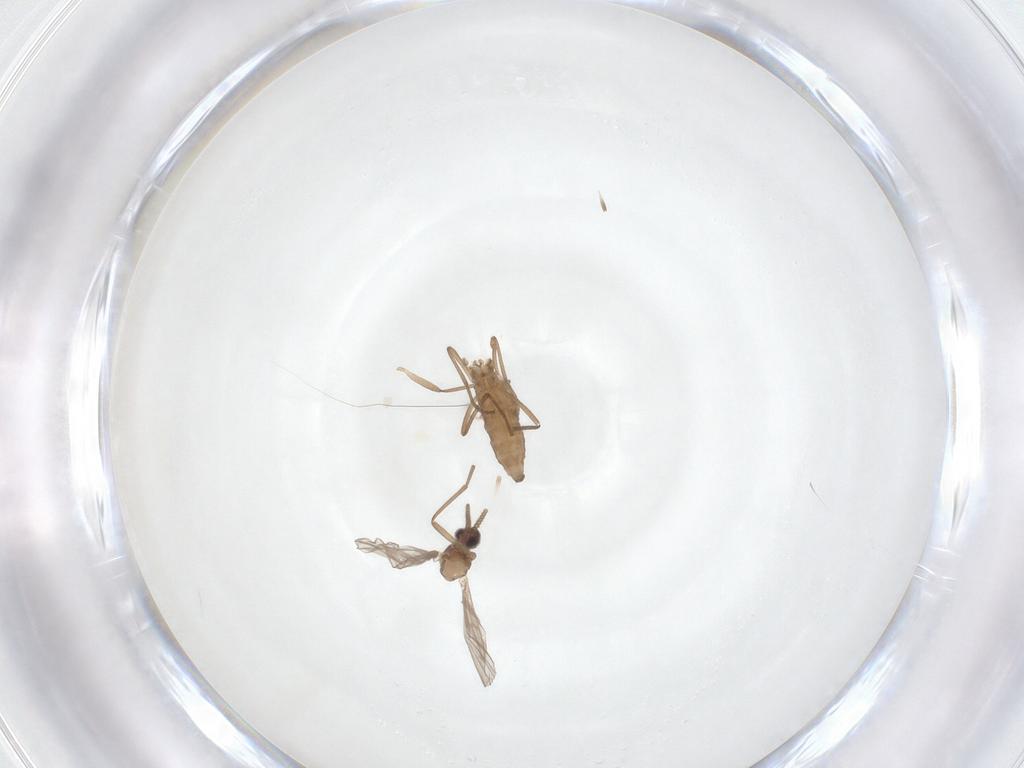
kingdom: Animalia
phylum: Arthropoda
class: Insecta
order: Diptera
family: Cecidomyiidae
